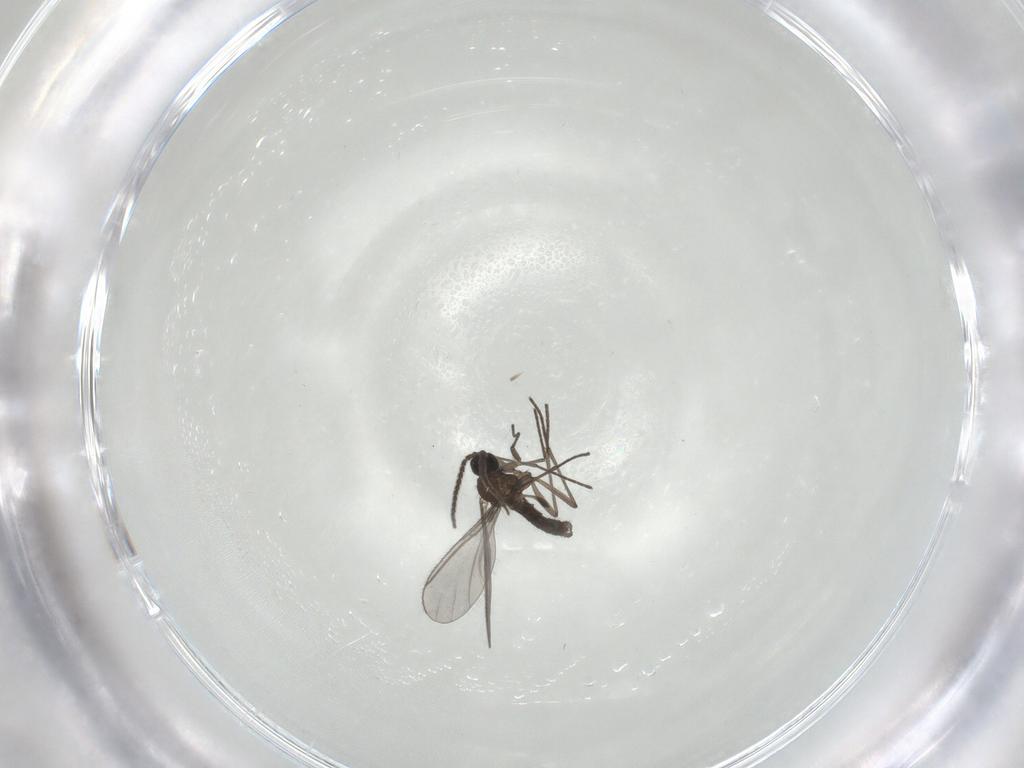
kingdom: Animalia
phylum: Arthropoda
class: Insecta
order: Diptera
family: Cecidomyiidae
